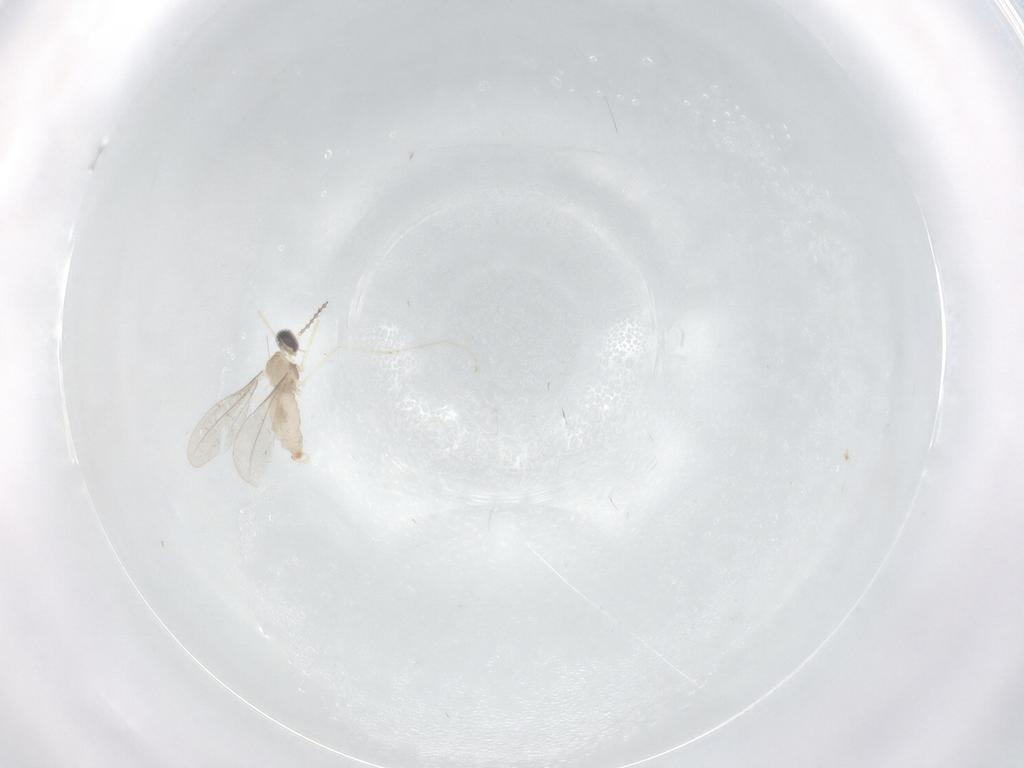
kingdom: Animalia
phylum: Arthropoda
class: Insecta
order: Diptera
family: Cecidomyiidae
